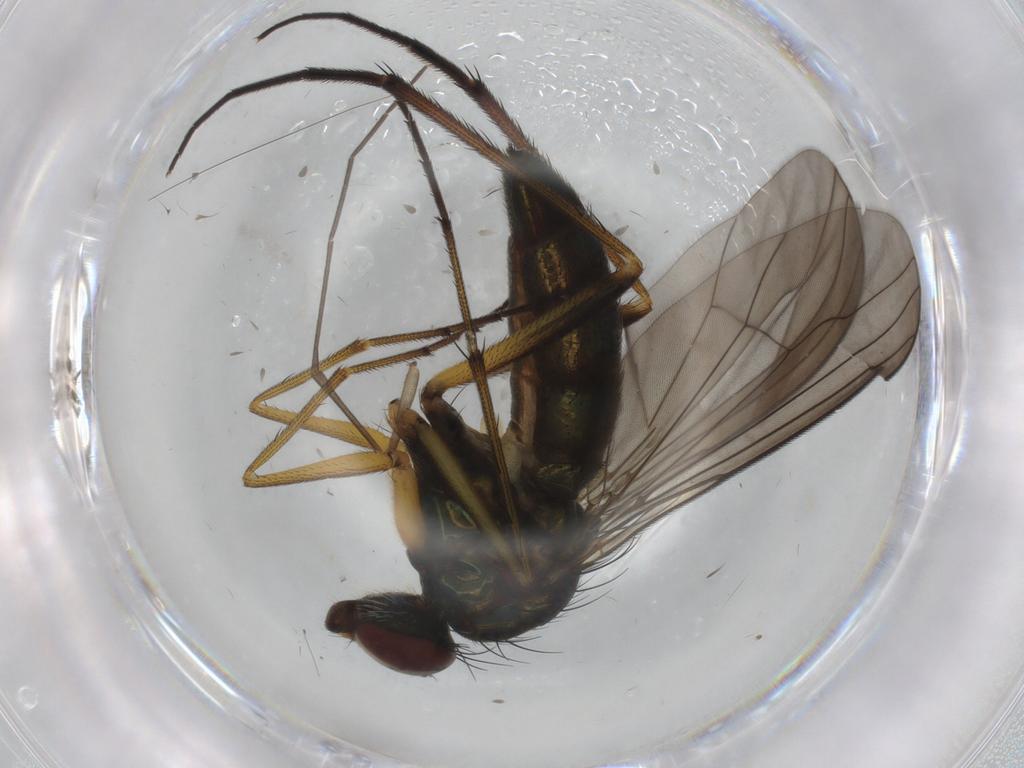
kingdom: Animalia
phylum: Arthropoda
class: Insecta
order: Diptera
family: Dolichopodidae
